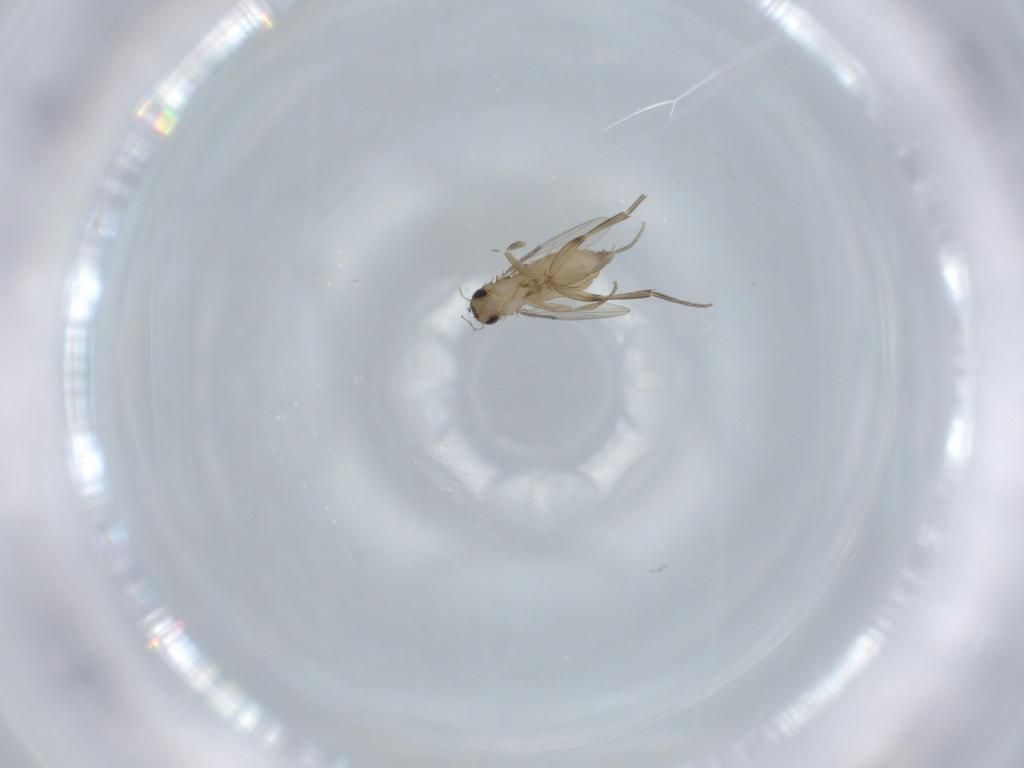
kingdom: Animalia
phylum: Arthropoda
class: Insecta
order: Diptera
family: Phoridae
